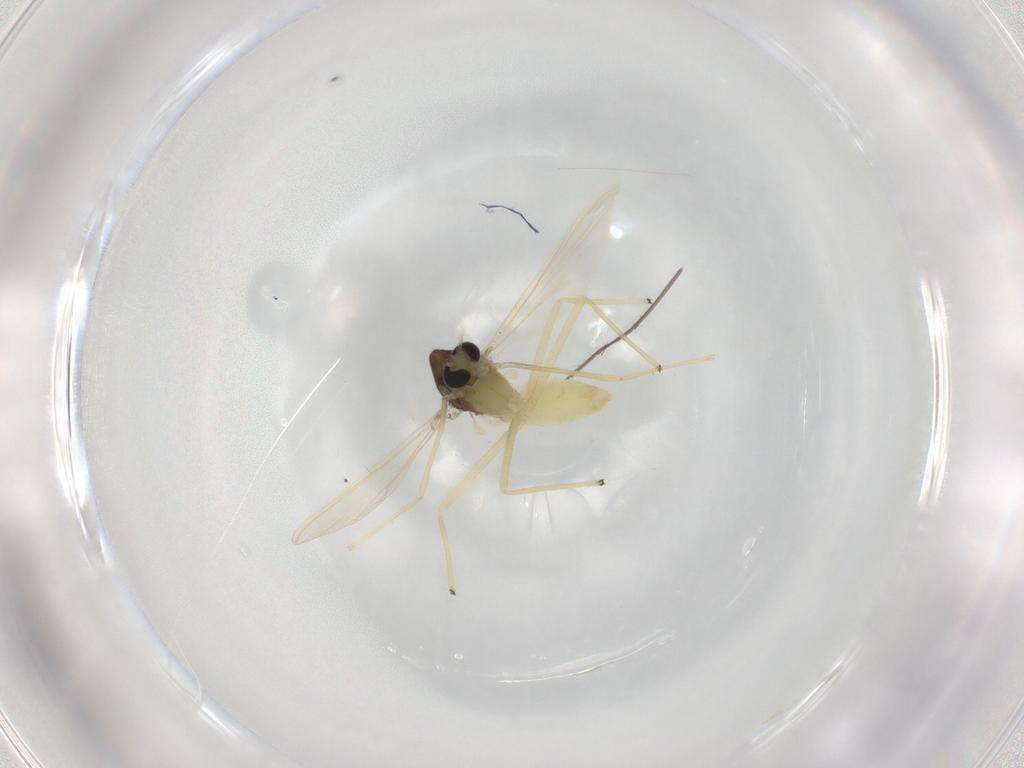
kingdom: Animalia
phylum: Arthropoda
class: Insecta
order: Diptera
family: Chironomidae
